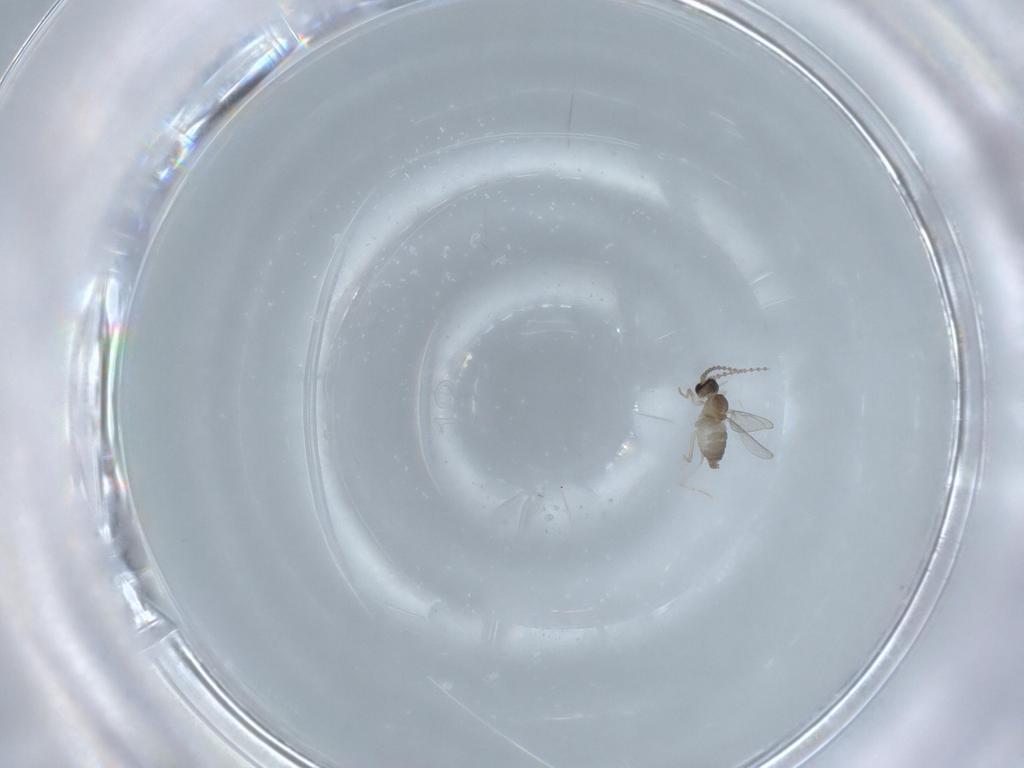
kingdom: Animalia
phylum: Arthropoda
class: Insecta
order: Diptera
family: Cecidomyiidae
